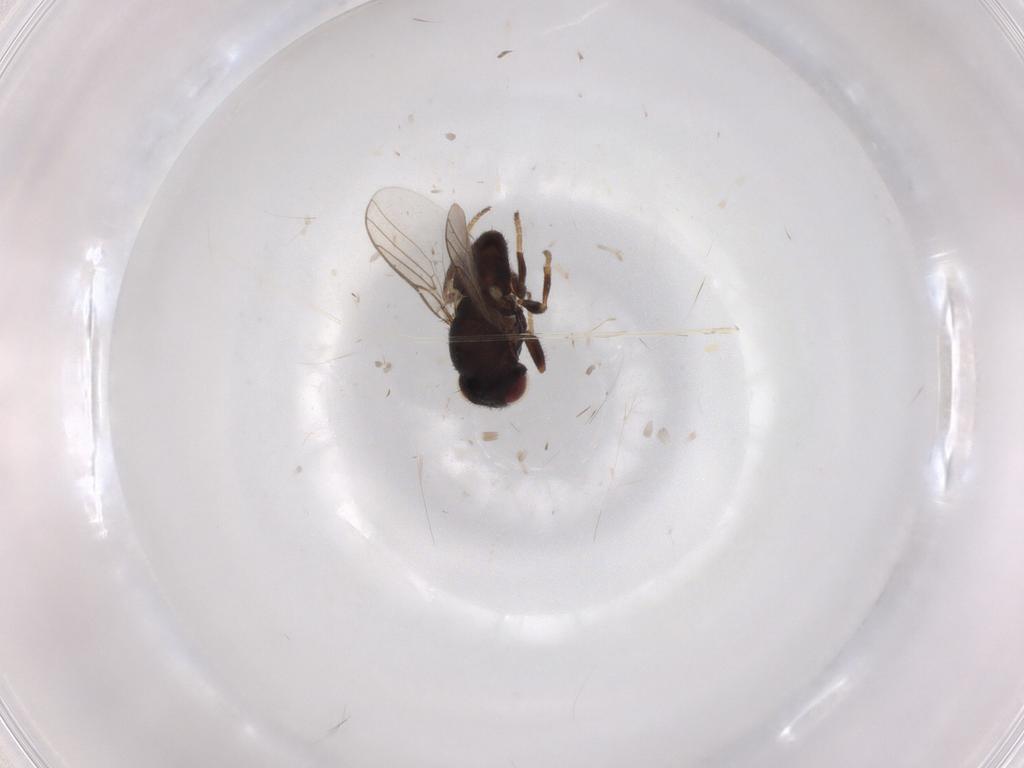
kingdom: Animalia
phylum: Arthropoda
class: Insecta
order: Diptera
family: Chloropidae
